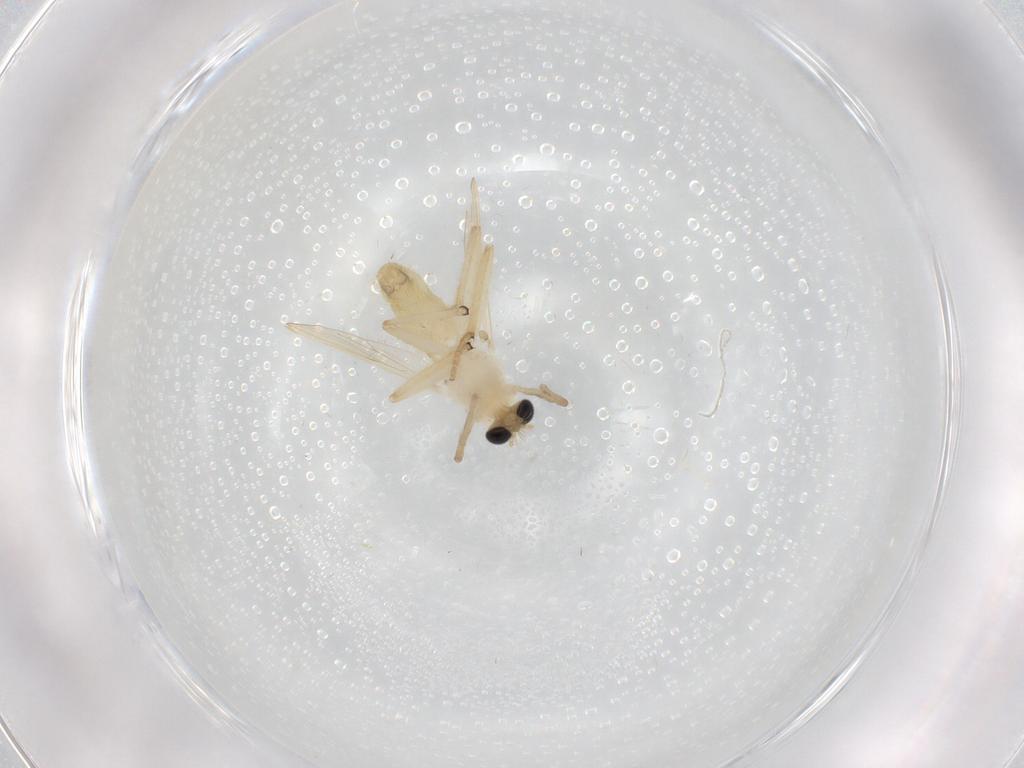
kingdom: Animalia
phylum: Arthropoda
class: Insecta
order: Diptera
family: Chironomidae
